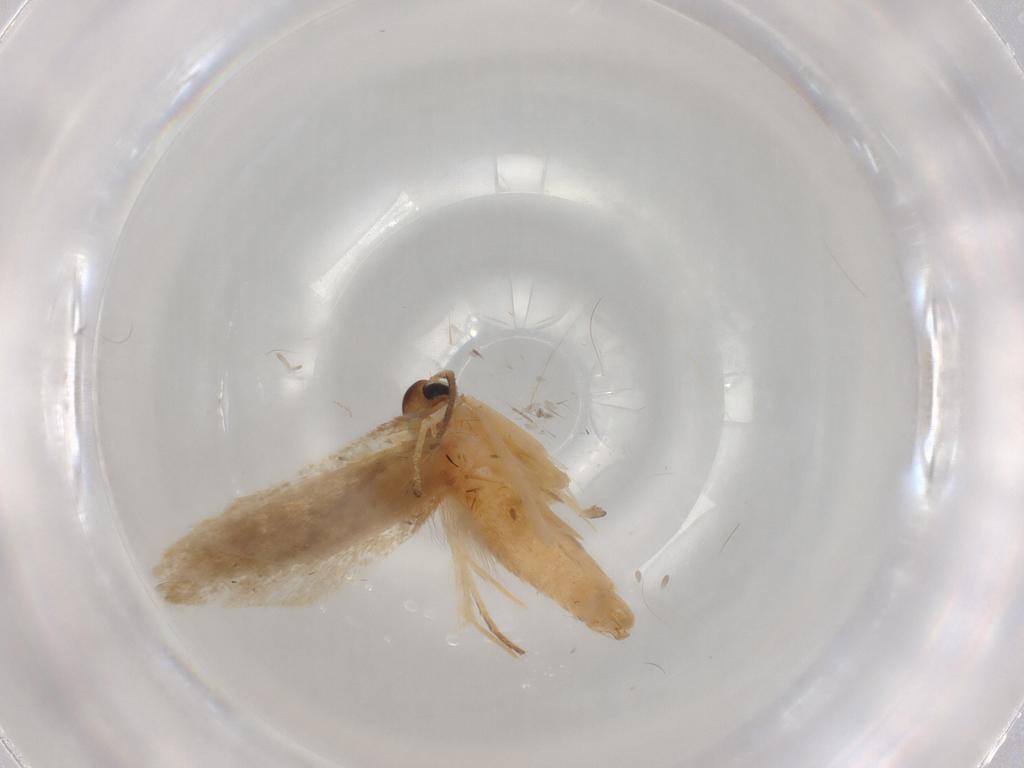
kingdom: Animalia
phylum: Arthropoda
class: Insecta
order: Lepidoptera
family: Lecithoceridae
